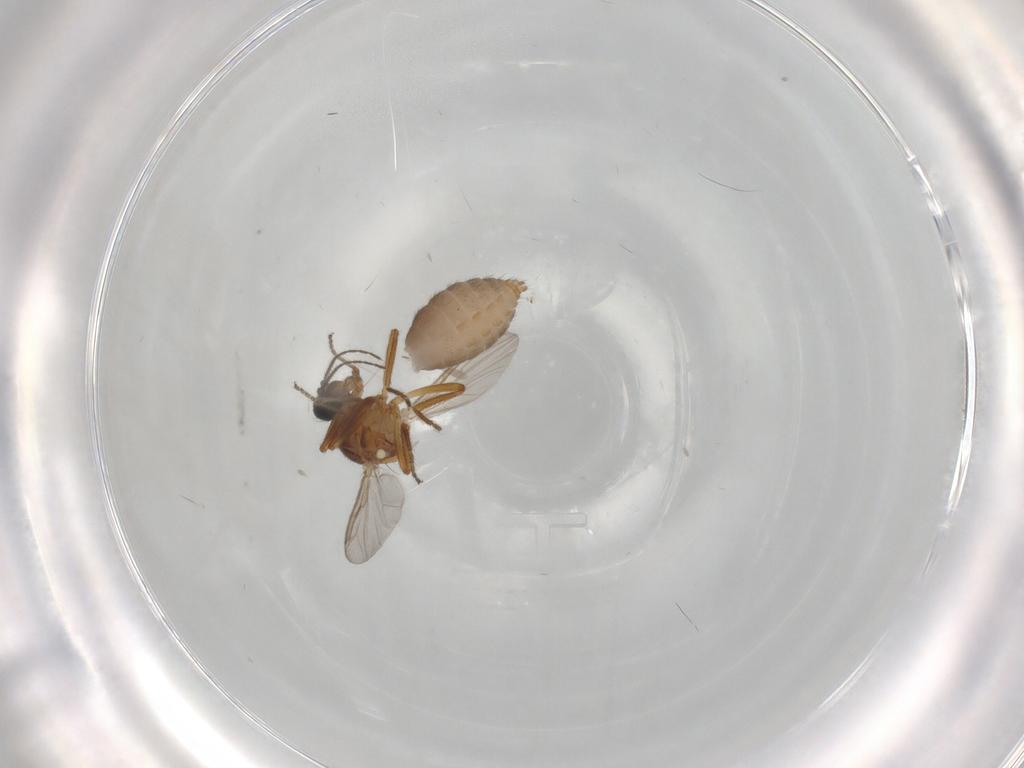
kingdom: Animalia
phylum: Arthropoda
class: Insecta
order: Diptera
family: Ceratopogonidae
